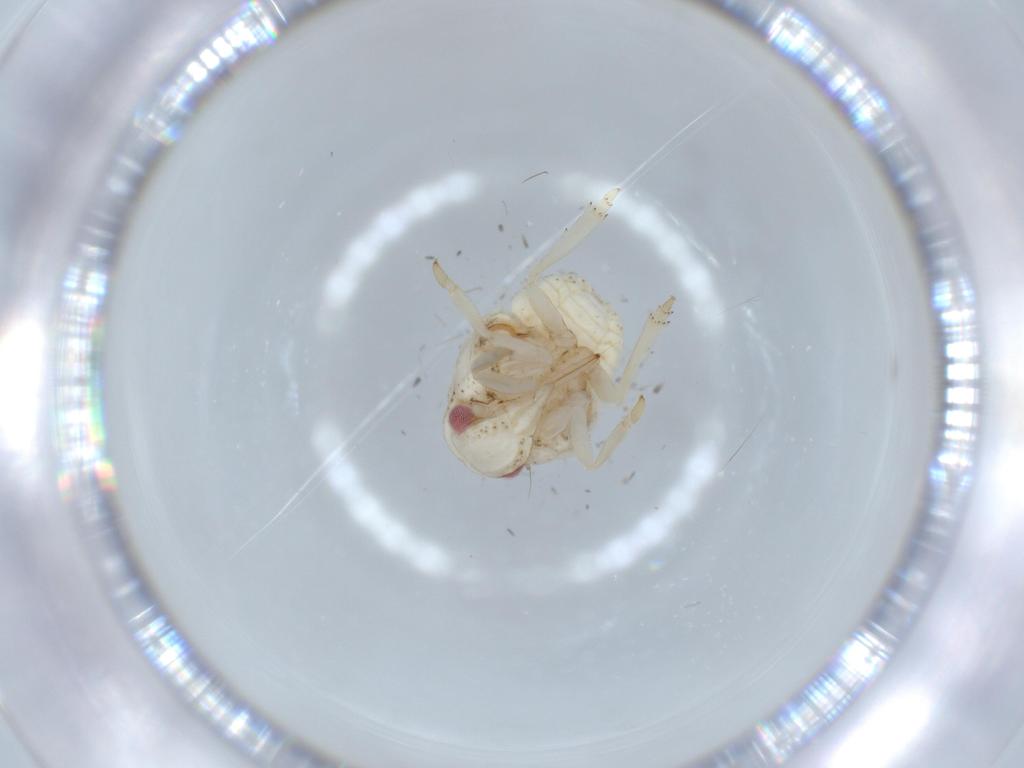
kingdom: Animalia
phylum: Arthropoda
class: Insecta
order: Hemiptera
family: Acanaloniidae
